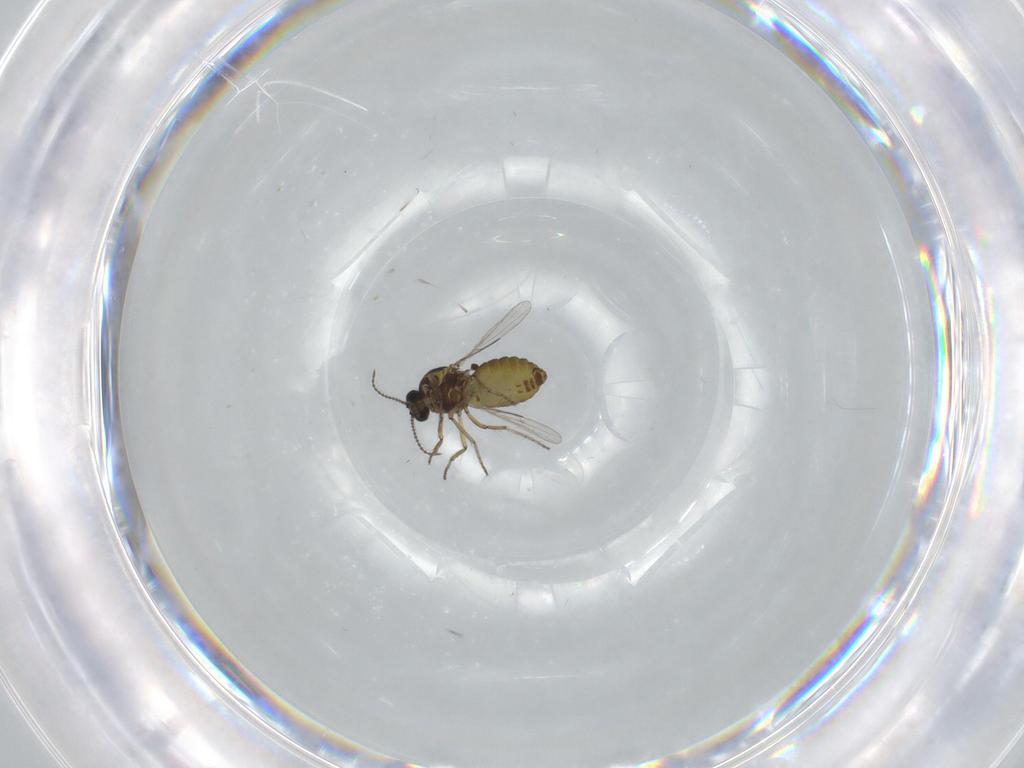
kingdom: Animalia
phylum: Arthropoda
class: Insecta
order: Diptera
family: Ceratopogonidae
